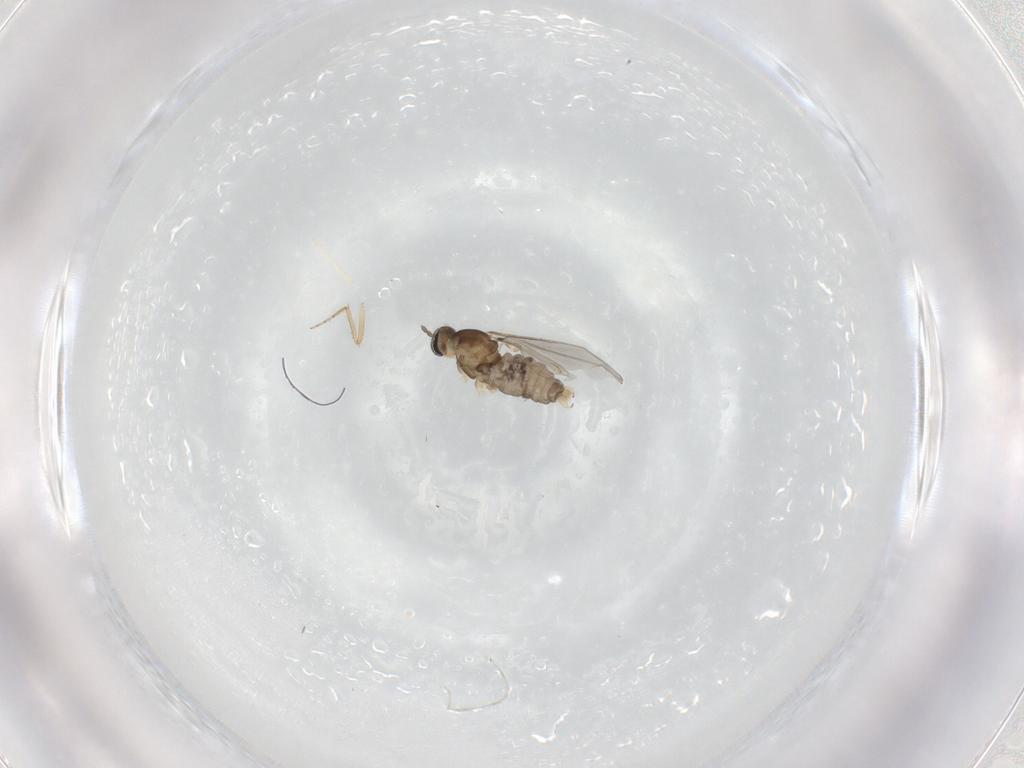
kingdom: Animalia
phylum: Arthropoda
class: Insecta
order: Diptera
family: Cecidomyiidae
